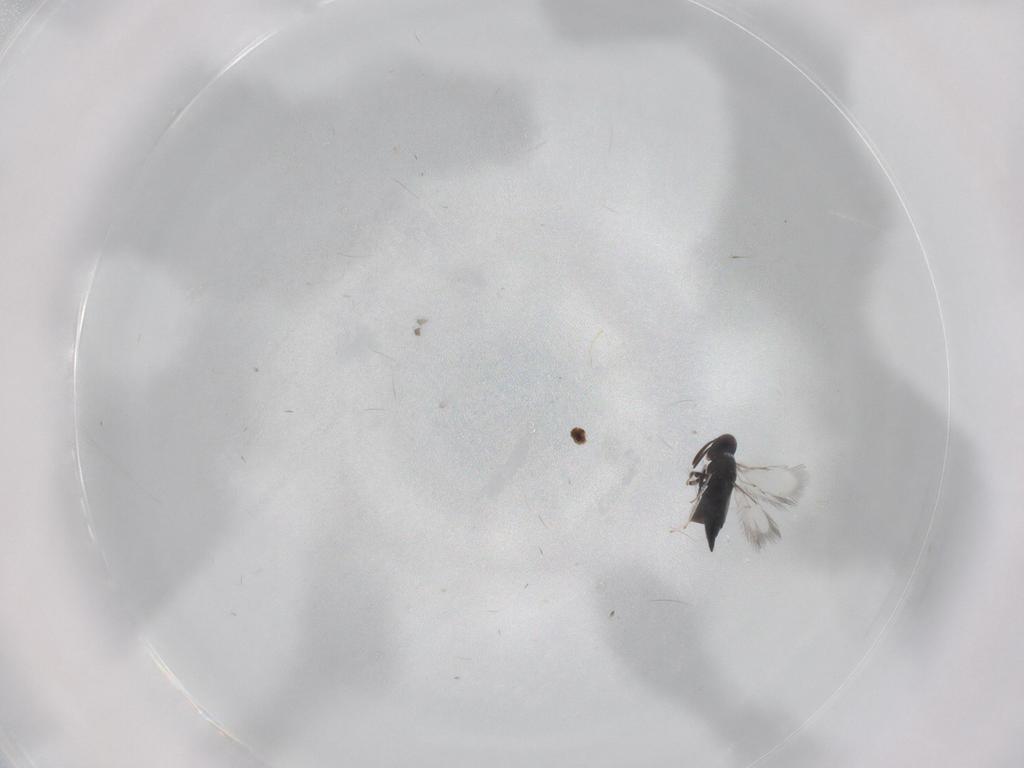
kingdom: Animalia
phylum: Arthropoda
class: Insecta
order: Hymenoptera
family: Signiphoridae
